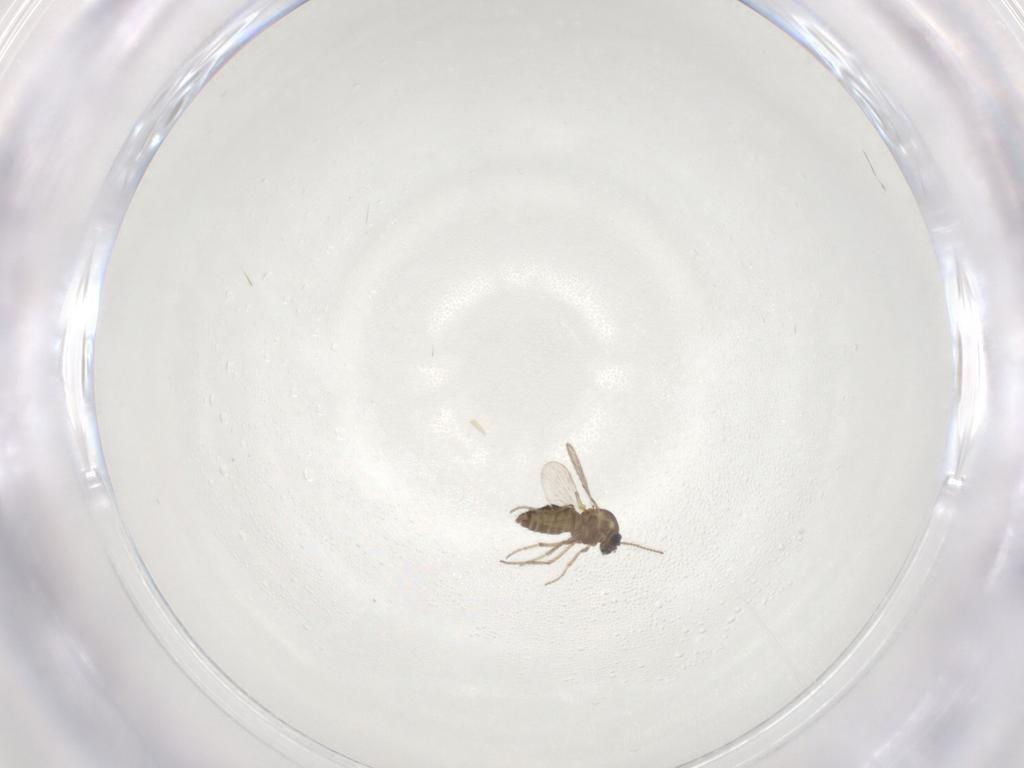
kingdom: Animalia
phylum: Arthropoda
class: Insecta
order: Diptera
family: Ceratopogonidae
